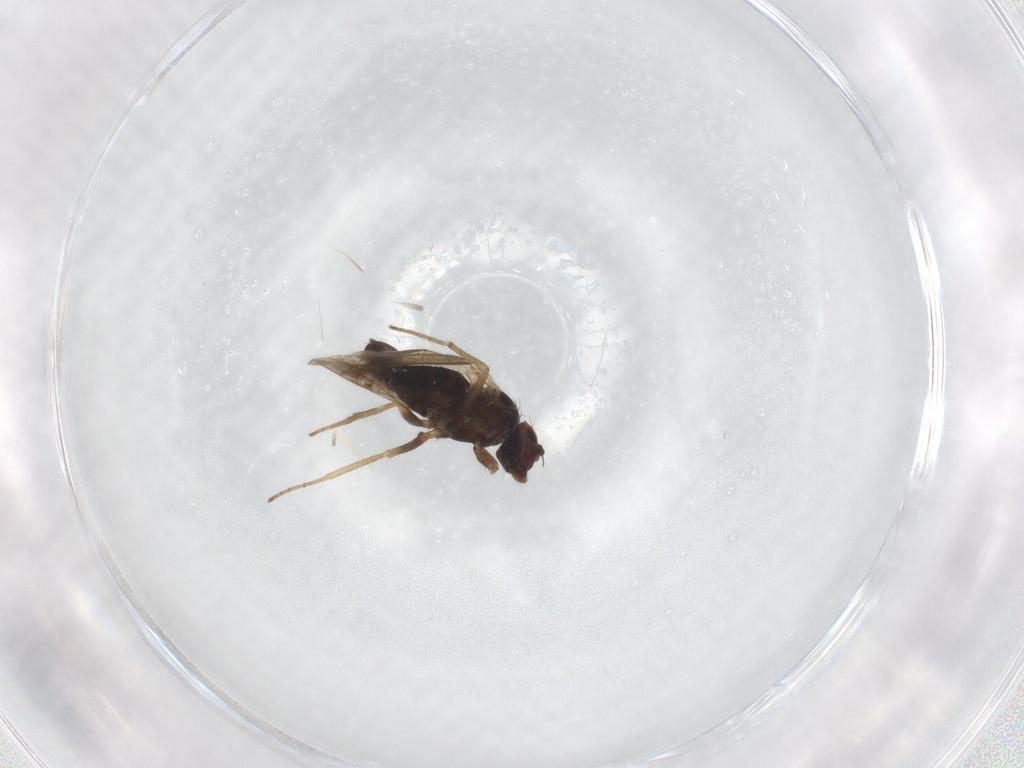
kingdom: Animalia
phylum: Arthropoda
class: Insecta
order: Diptera
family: Dolichopodidae
